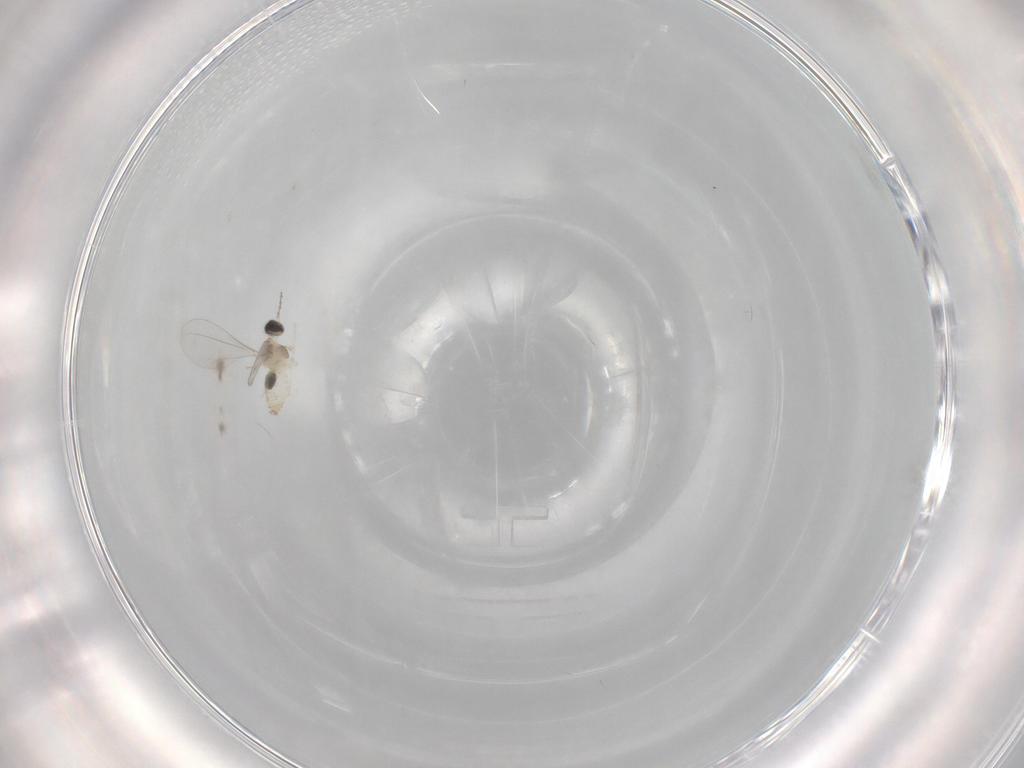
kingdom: Animalia
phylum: Arthropoda
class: Insecta
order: Diptera
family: Cecidomyiidae
